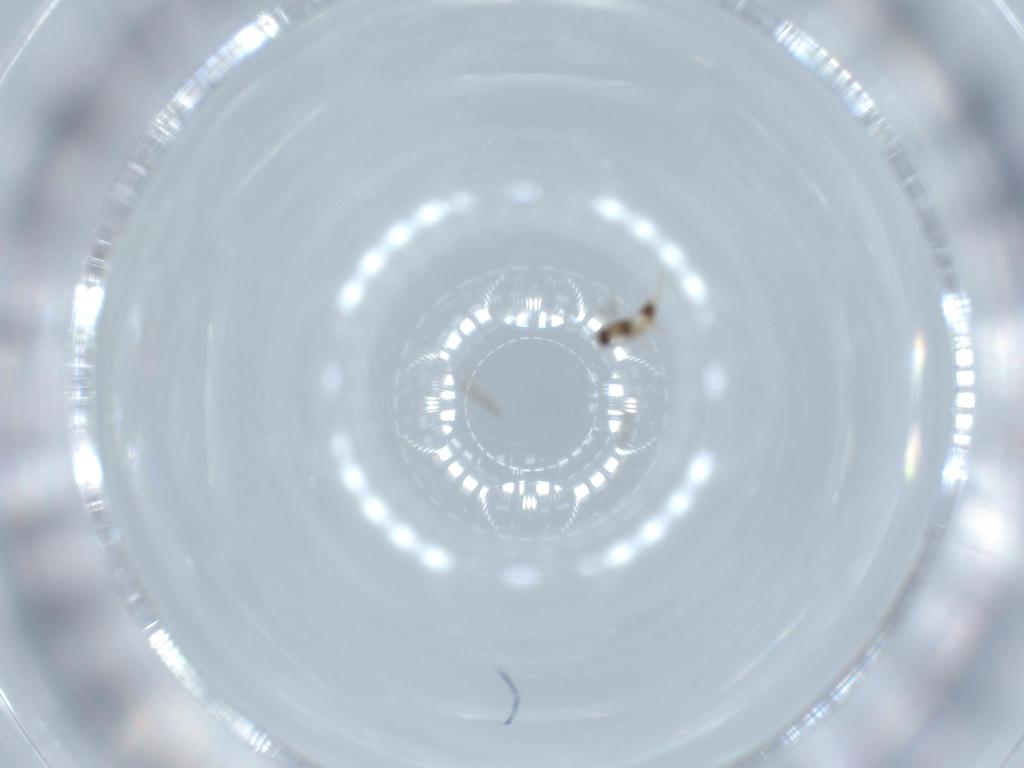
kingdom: Animalia
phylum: Arthropoda
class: Insecta
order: Hymenoptera
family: Mymaridae
